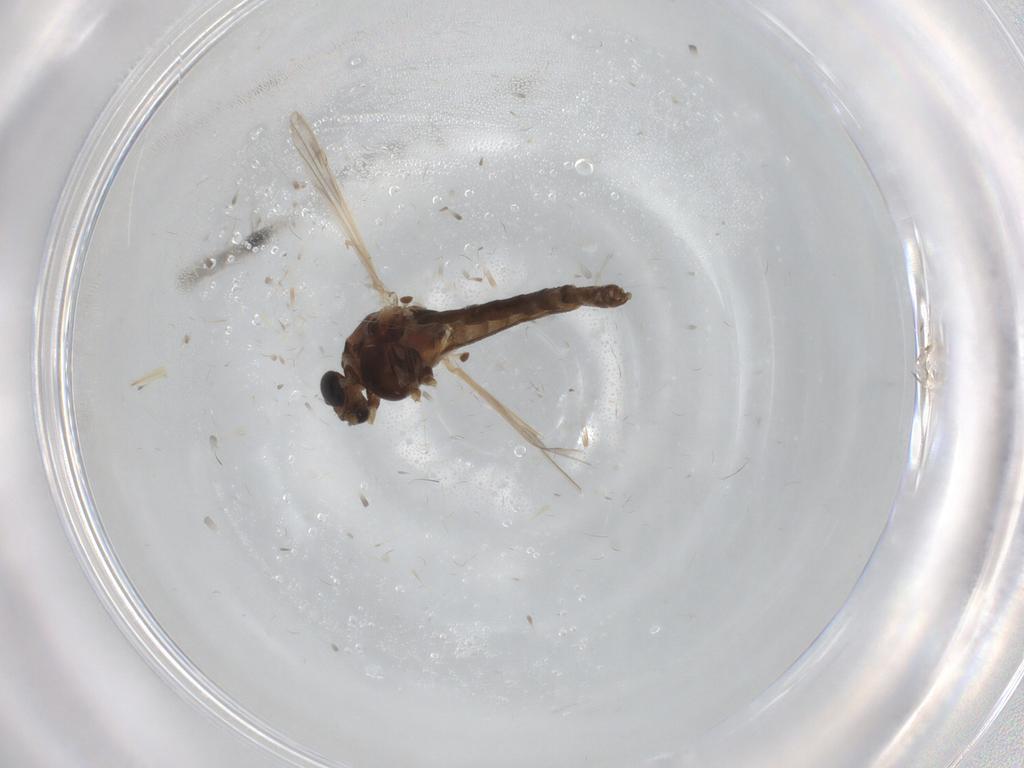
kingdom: Animalia
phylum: Arthropoda
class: Insecta
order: Diptera
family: Chironomidae
